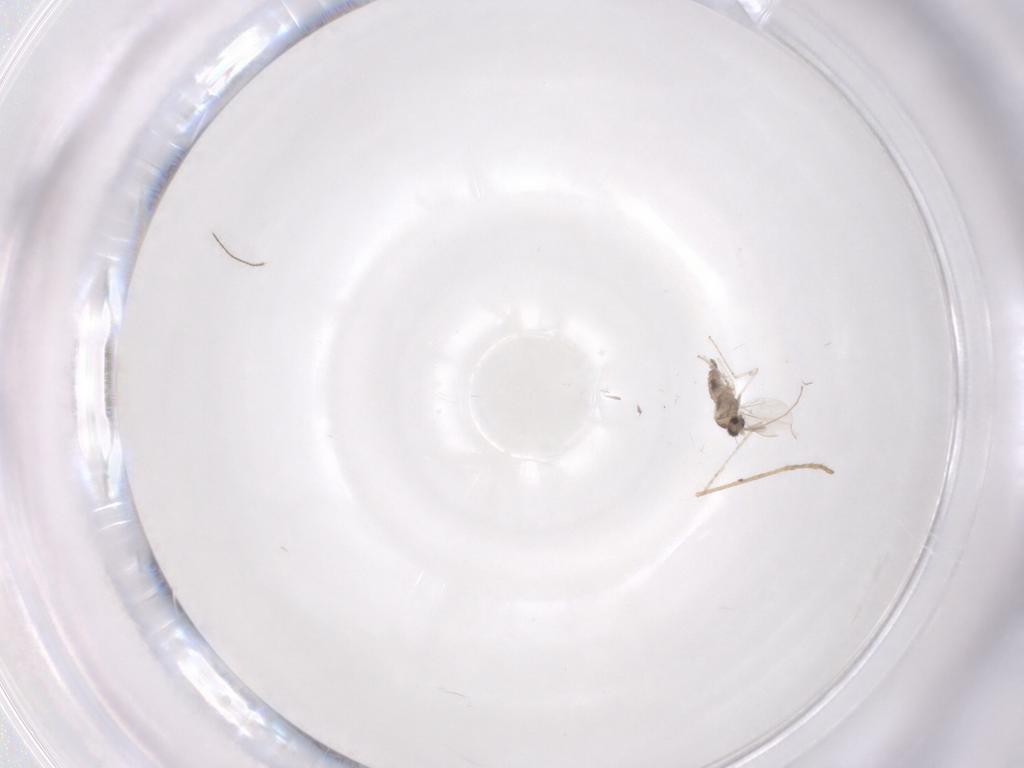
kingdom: Animalia
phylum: Arthropoda
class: Insecta
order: Diptera
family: Cecidomyiidae
